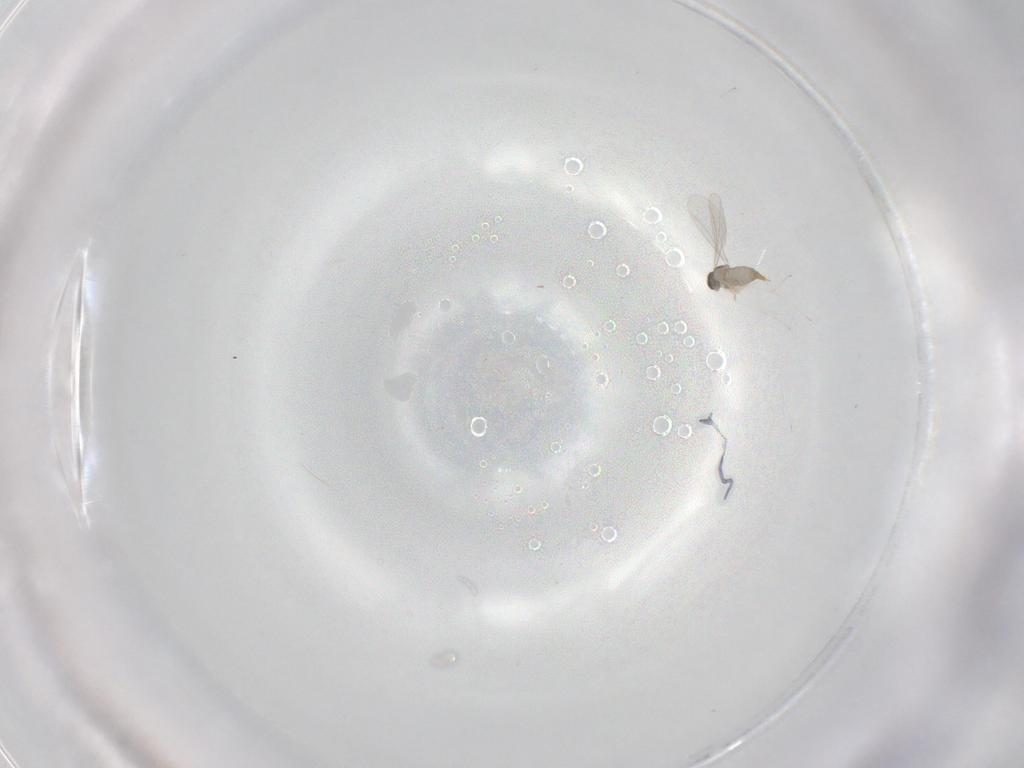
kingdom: Animalia
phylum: Arthropoda
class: Insecta
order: Diptera
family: Cecidomyiidae
